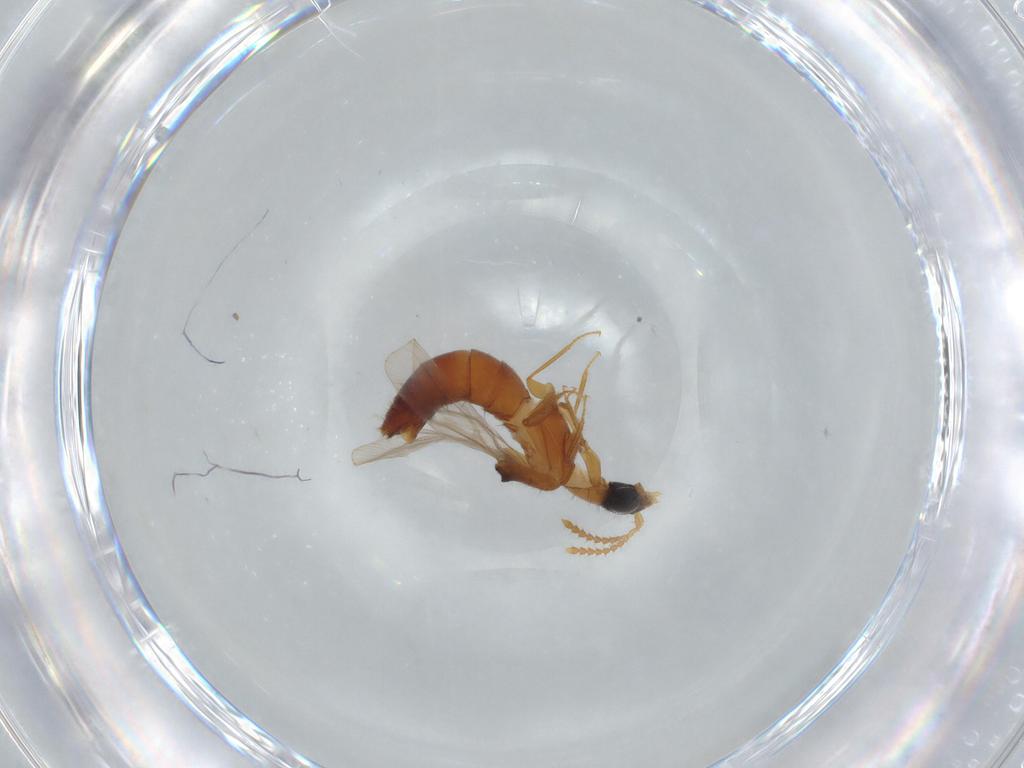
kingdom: Animalia
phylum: Arthropoda
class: Insecta
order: Coleoptera
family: Staphylinidae
